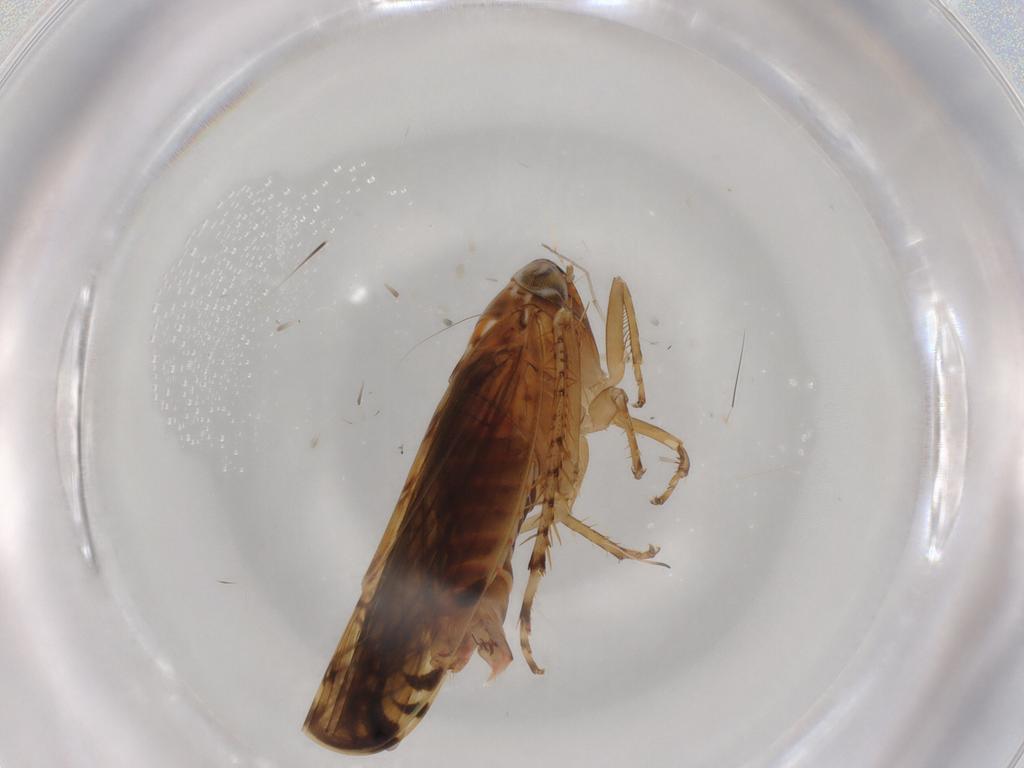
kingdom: Animalia
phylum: Arthropoda
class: Insecta
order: Hemiptera
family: Cicadellidae
